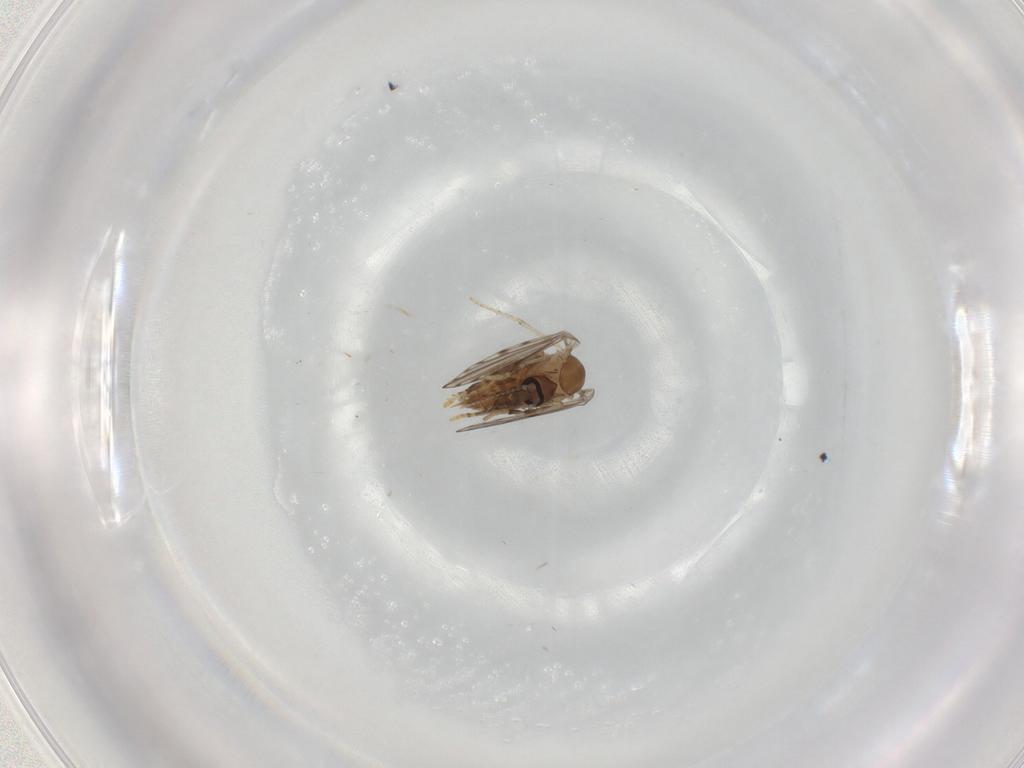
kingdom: Animalia
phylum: Arthropoda
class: Insecta
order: Diptera
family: Psychodidae
